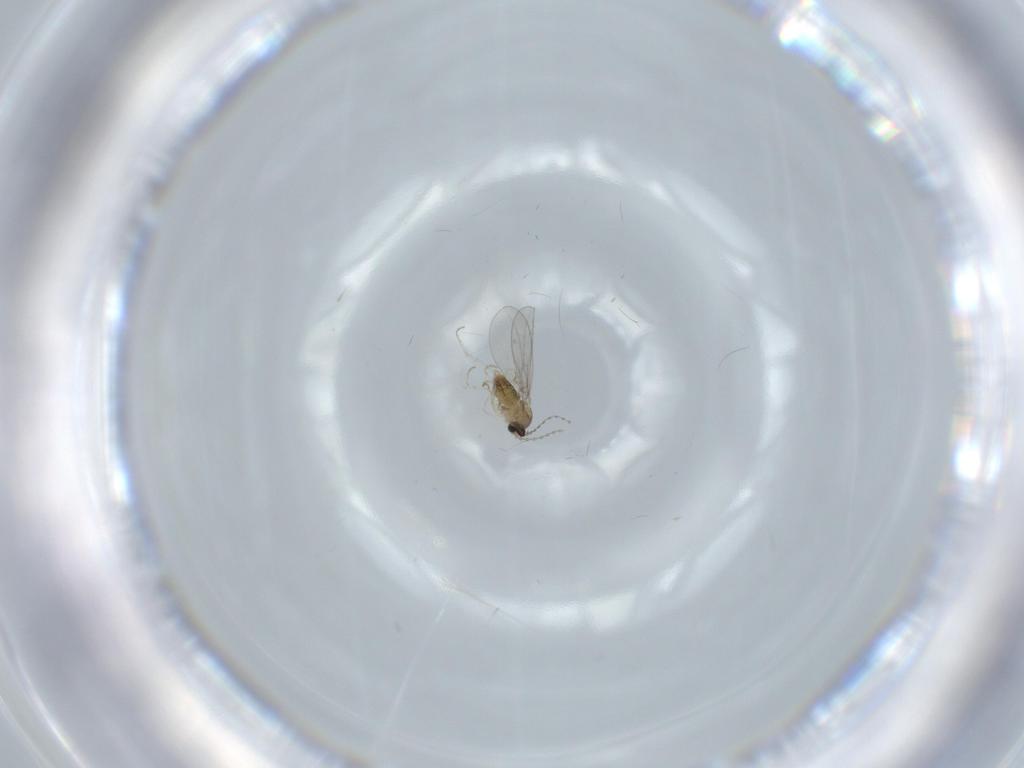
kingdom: Animalia
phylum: Arthropoda
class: Insecta
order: Diptera
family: Cecidomyiidae
